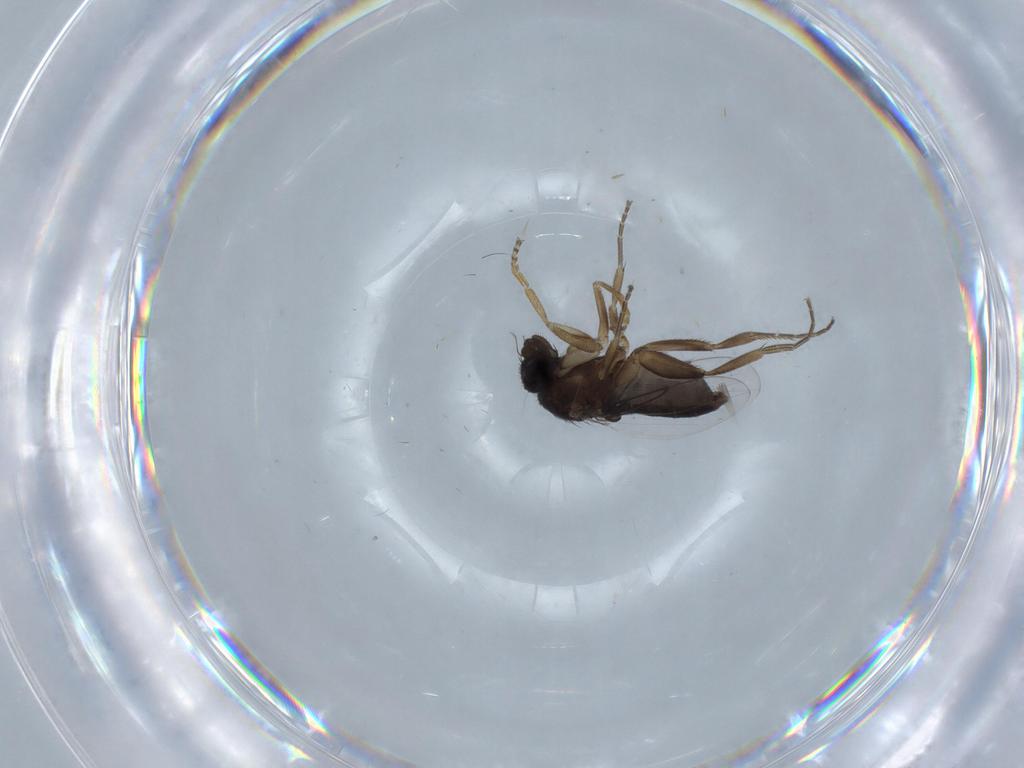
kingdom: Animalia
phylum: Arthropoda
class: Insecta
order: Diptera
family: Phoridae
